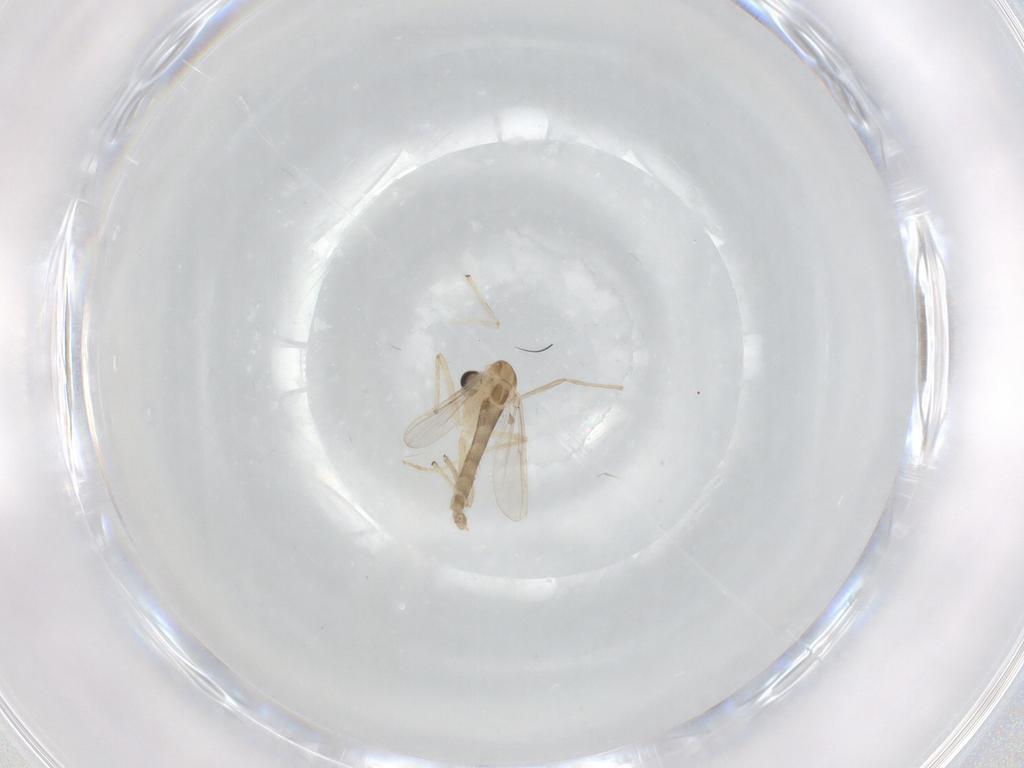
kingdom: Animalia
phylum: Arthropoda
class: Insecta
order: Diptera
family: Chironomidae
